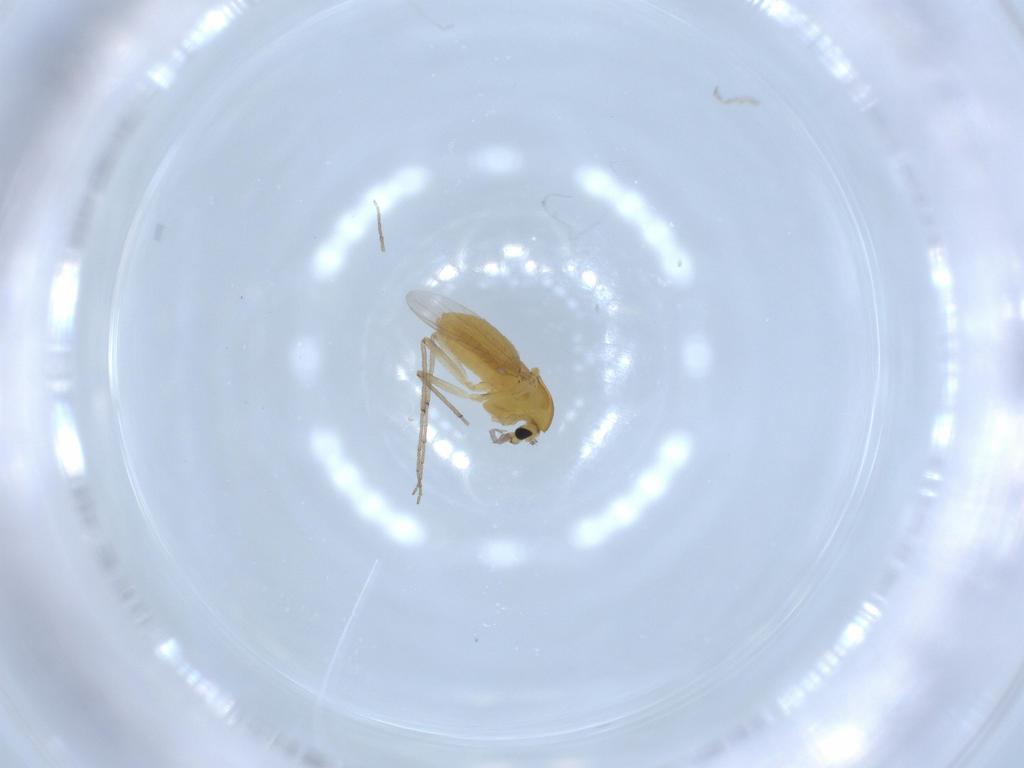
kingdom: Animalia
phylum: Arthropoda
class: Insecta
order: Diptera
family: Chironomidae
